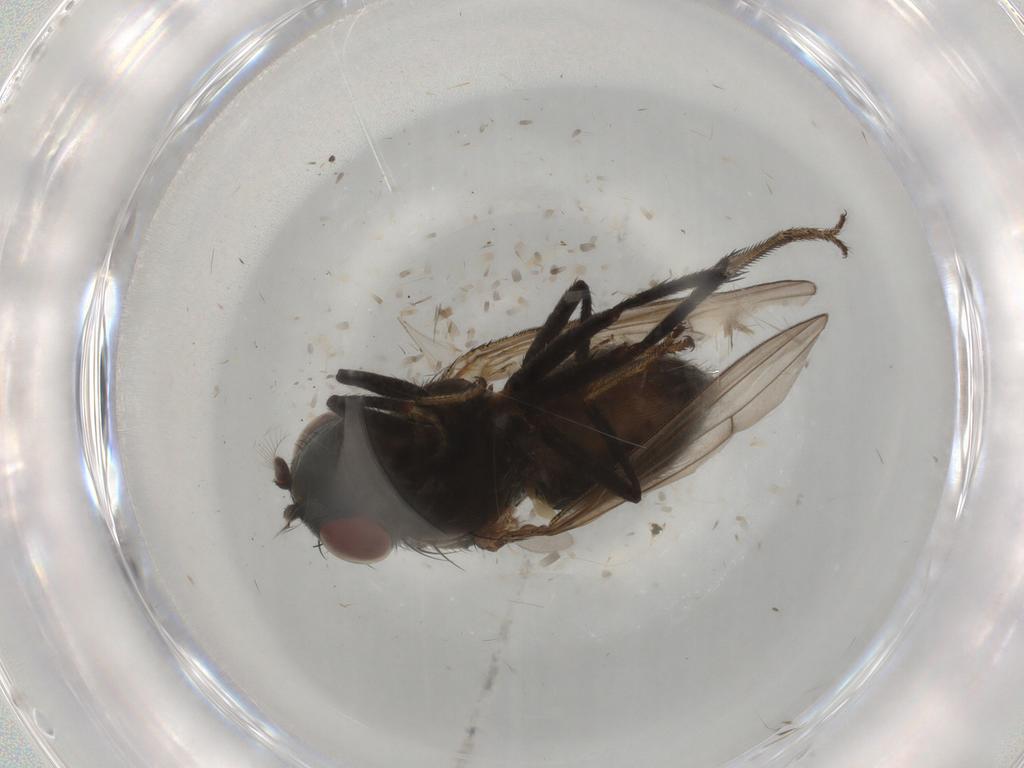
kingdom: Animalia
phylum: Arthropoda
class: Insecta
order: Diptera
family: Ephydridae
